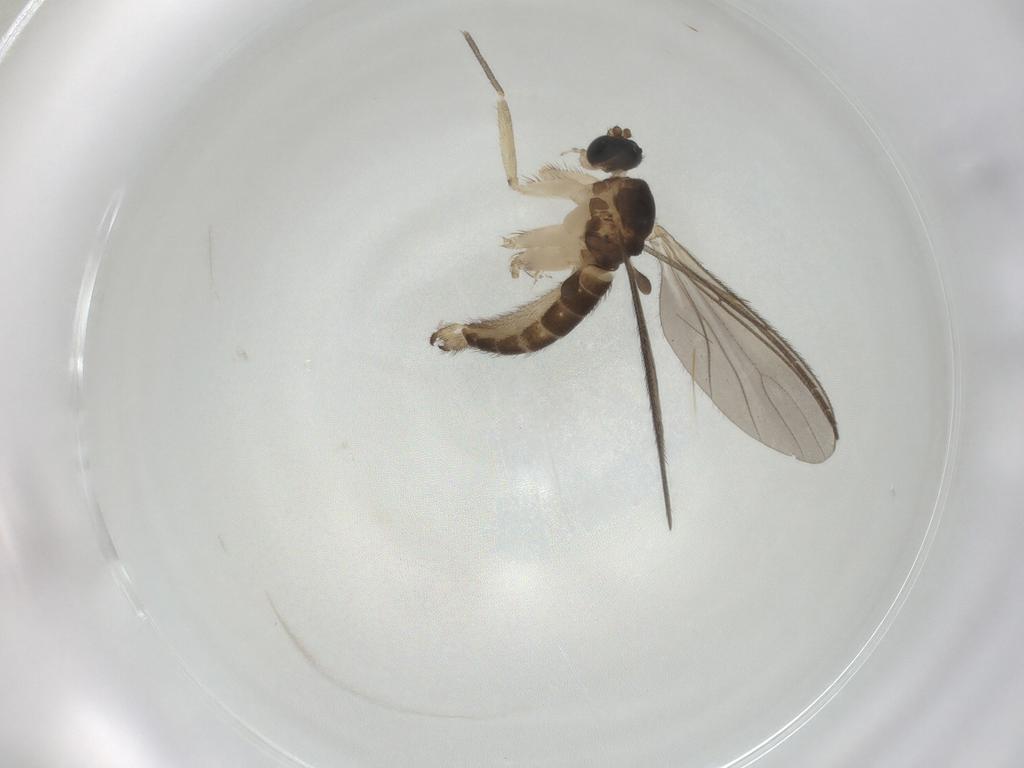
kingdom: Animalia
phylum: Arthropoda
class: Insecta
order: Diptera
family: Sciaridae
